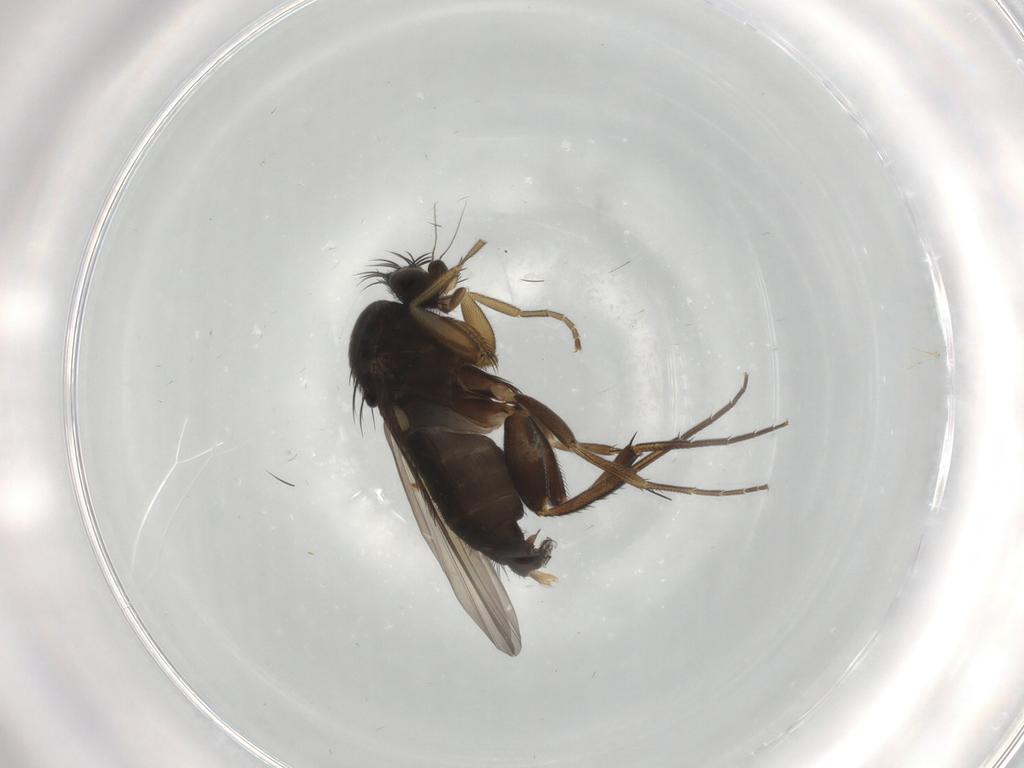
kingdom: Animalia
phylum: Arthropoda
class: Insecta
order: Diptera
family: Phoridae
